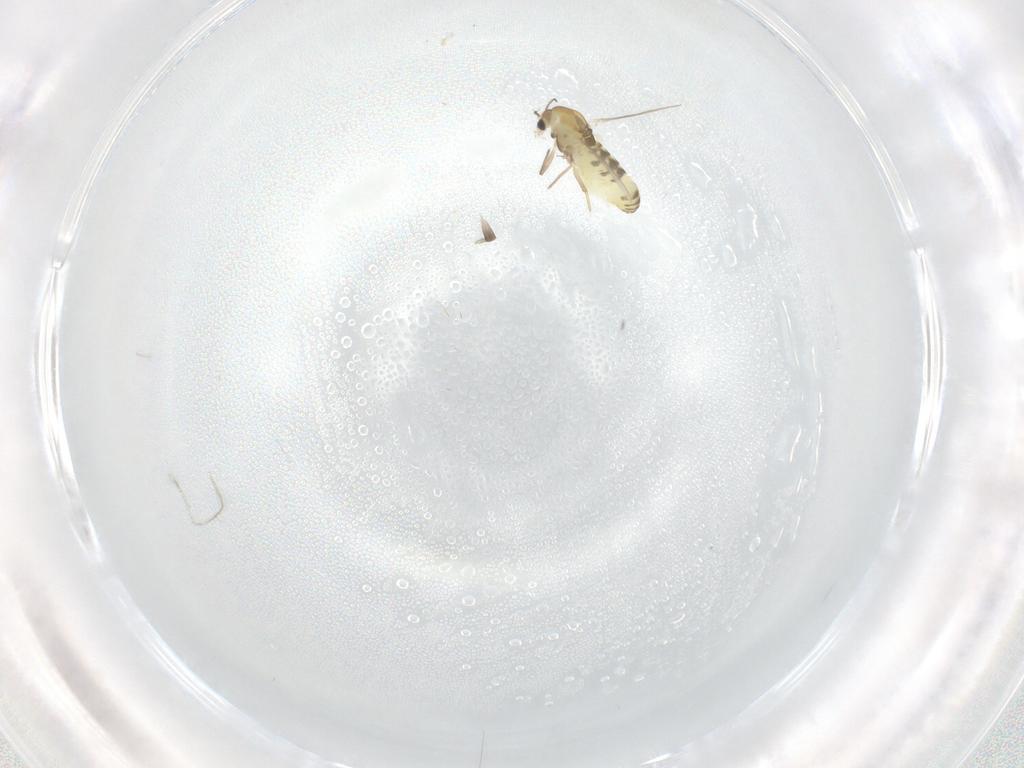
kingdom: Animalia
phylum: Arthropoda
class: Insecta
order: Diptera
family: Chironomidae
